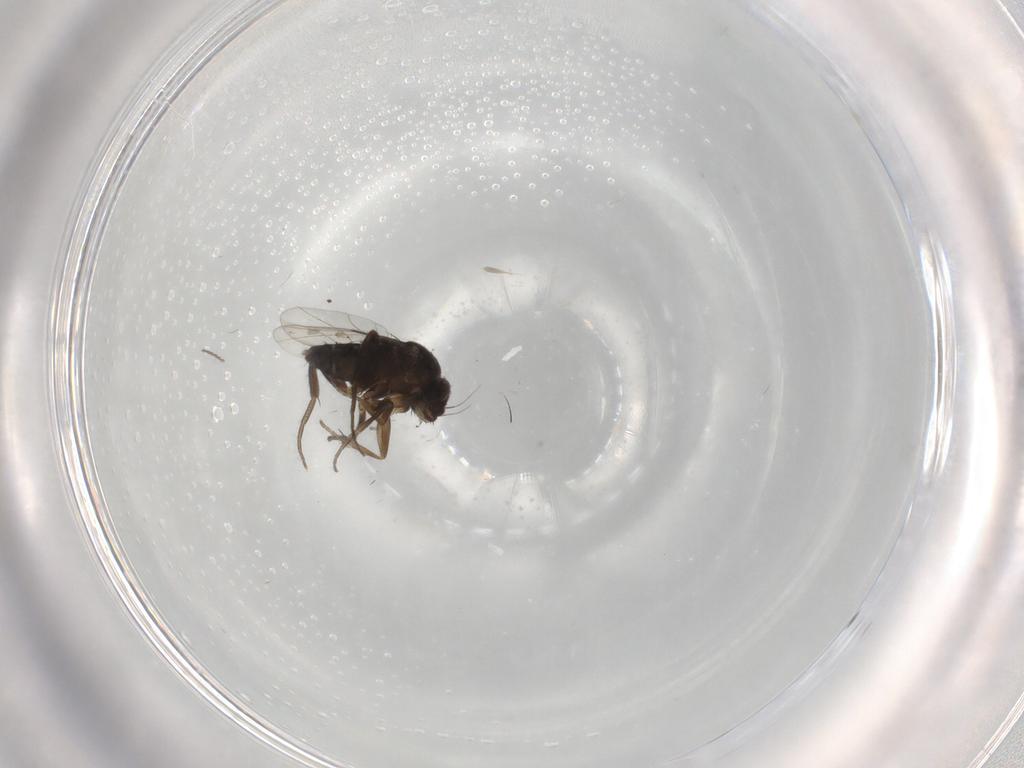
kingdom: Animalia
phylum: Arthropoda
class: Insecta
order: Diptera
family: Phoridae
